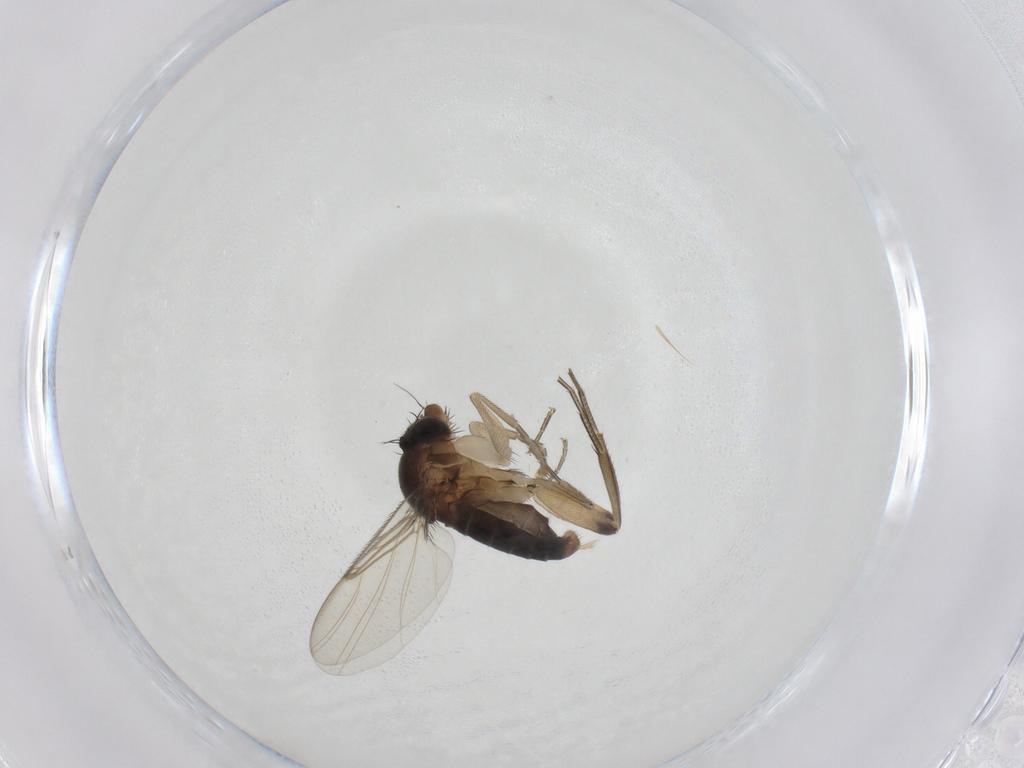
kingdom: Animalia
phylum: Arthropoda
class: Insecta
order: Diptera
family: Phoridae
